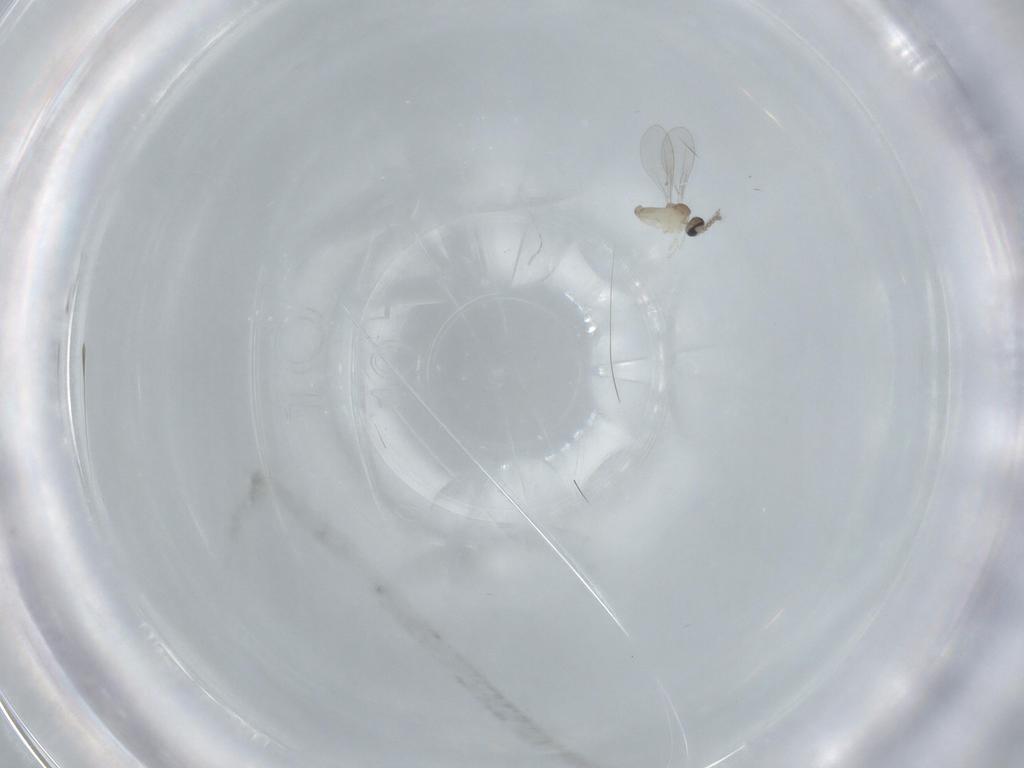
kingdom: Animalia
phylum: Arthropoda
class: Insecta
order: Diptera
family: Cecidomyiidae
